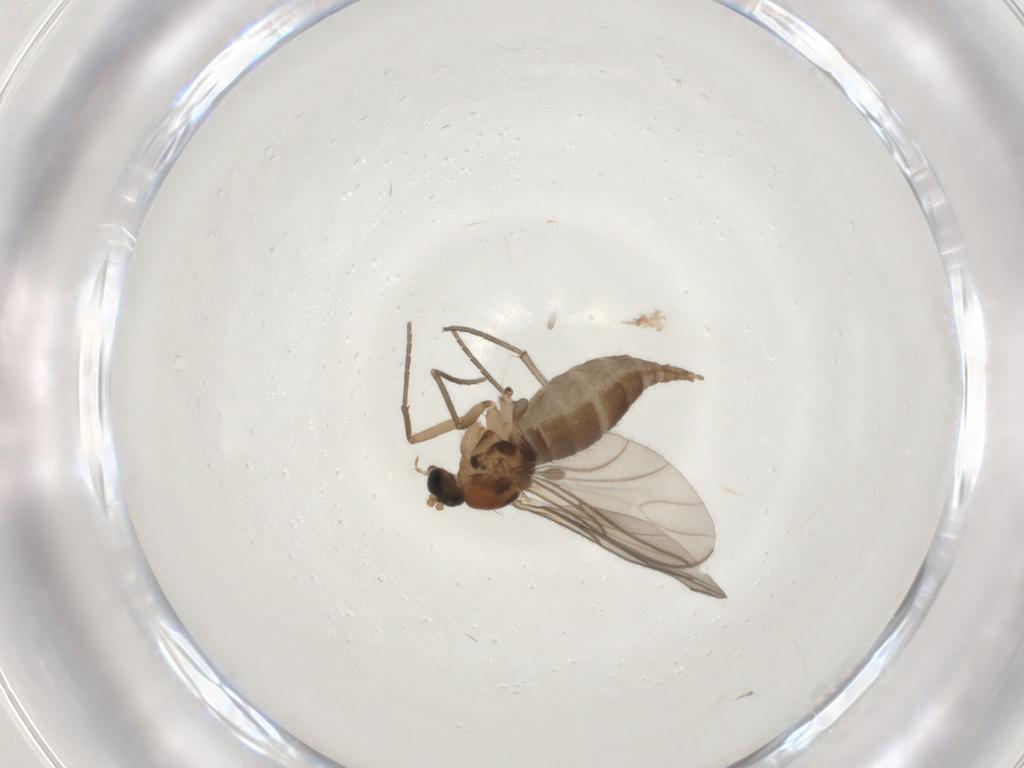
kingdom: Animalia
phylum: Arthropoda
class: Insecta
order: Diptera
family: Sciaridae
